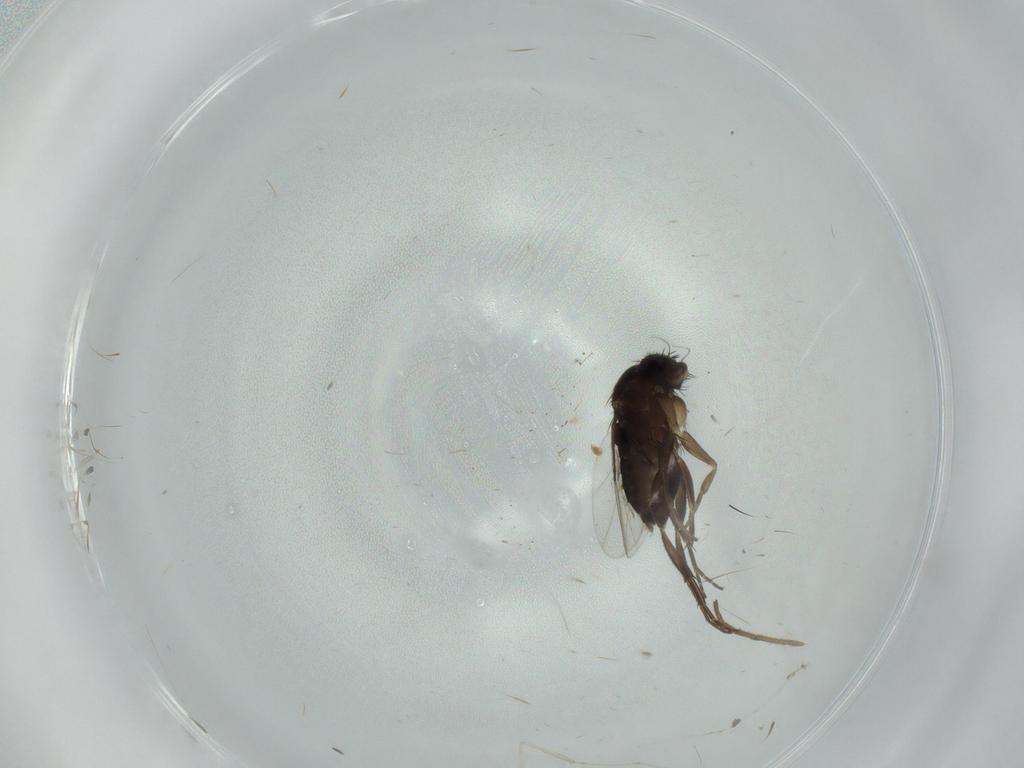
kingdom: Animalia
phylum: Arthropoda
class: Insecta
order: Diptera
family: Phoridae
